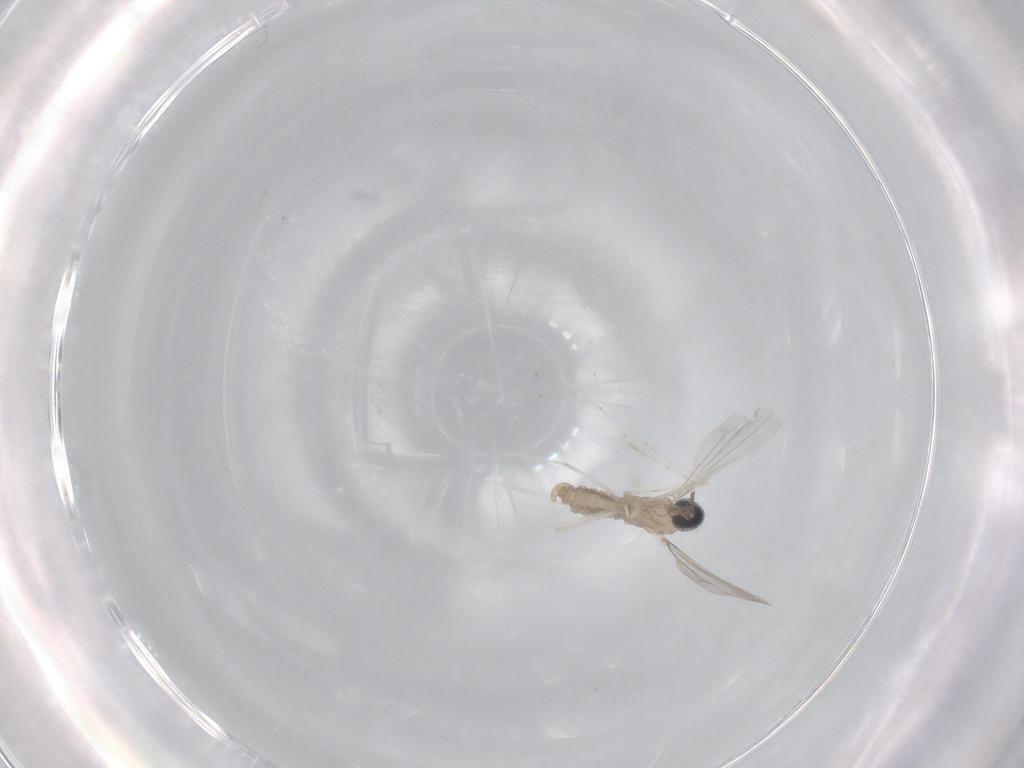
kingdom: Animalia
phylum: Arthropoda
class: Insecta
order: Diptera
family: Cecidomyiidae
